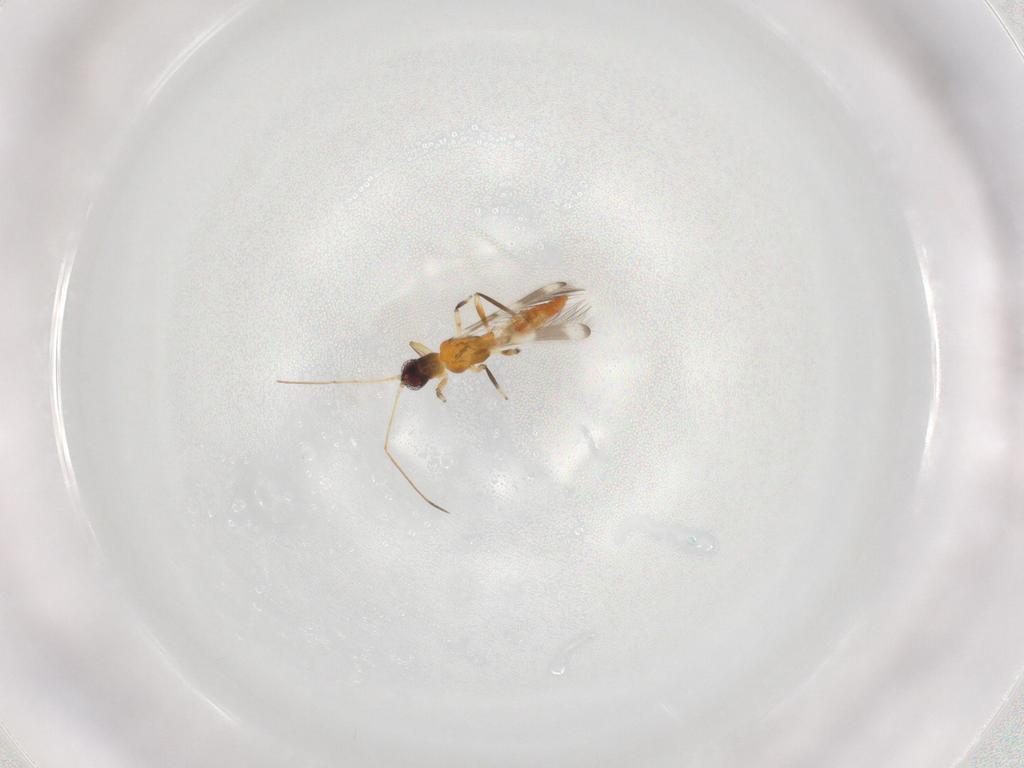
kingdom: Animalia
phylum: Arthropoda
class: Insecta
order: Thysanoptera
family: Aeolothripidae
